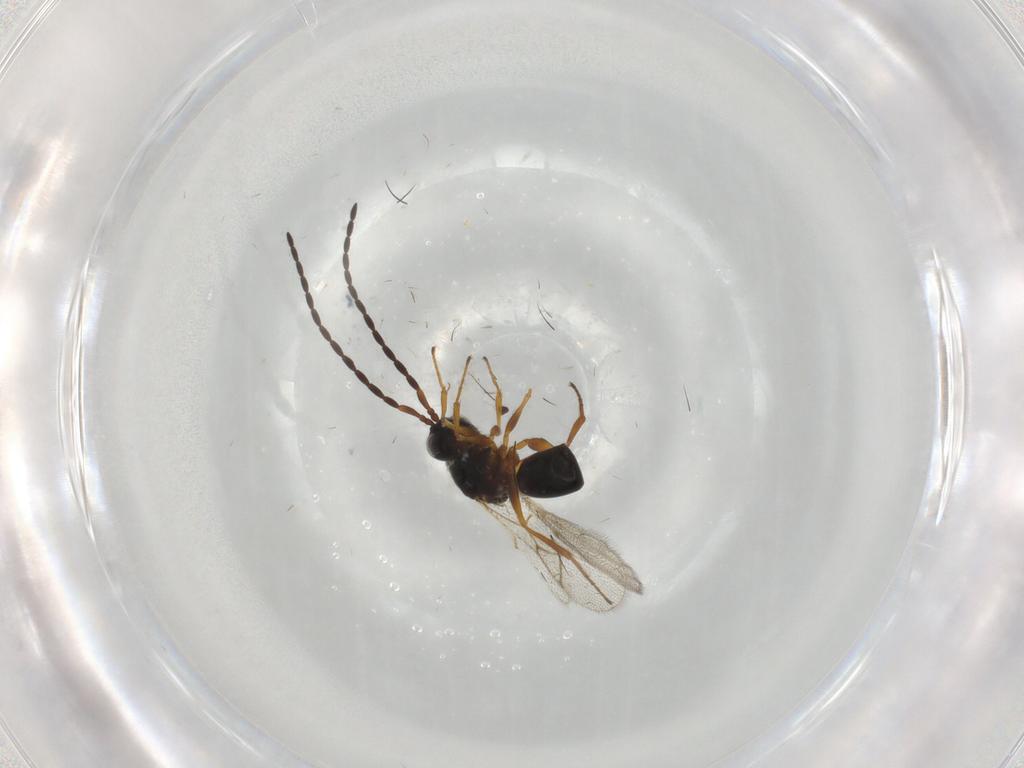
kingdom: Animalia
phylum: Arthropoda
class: Insecta
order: Hymenoptera
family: Figitidae
